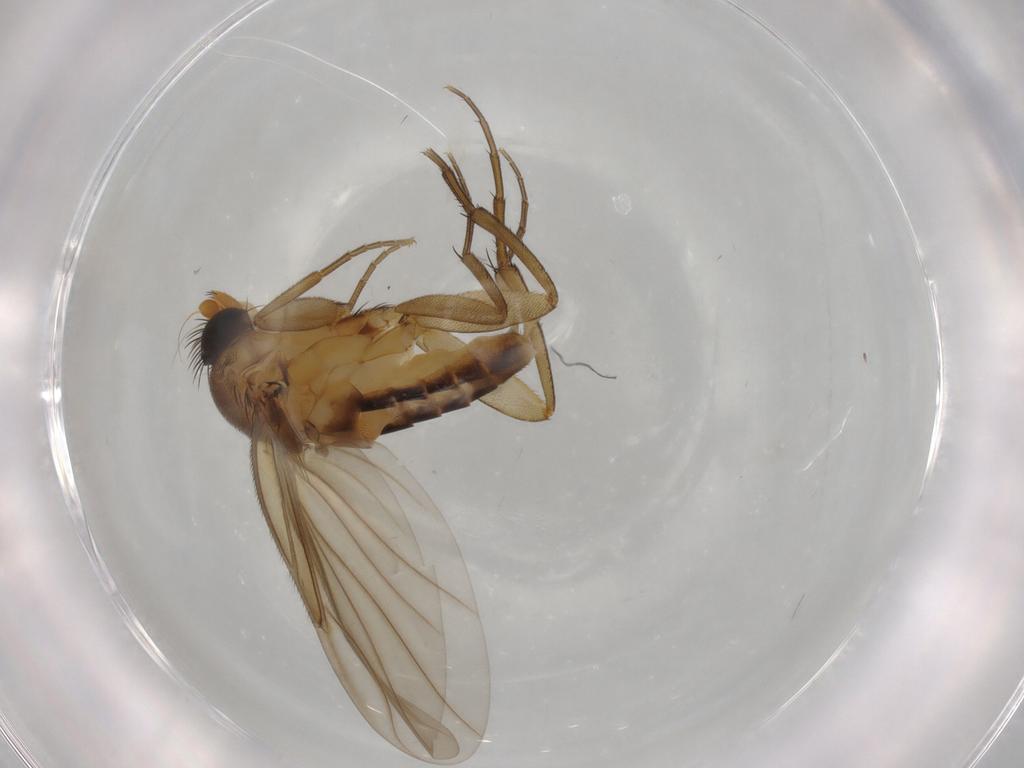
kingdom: Animalia
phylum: Arthropoda
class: Insecta
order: Diptera
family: Phoridae
